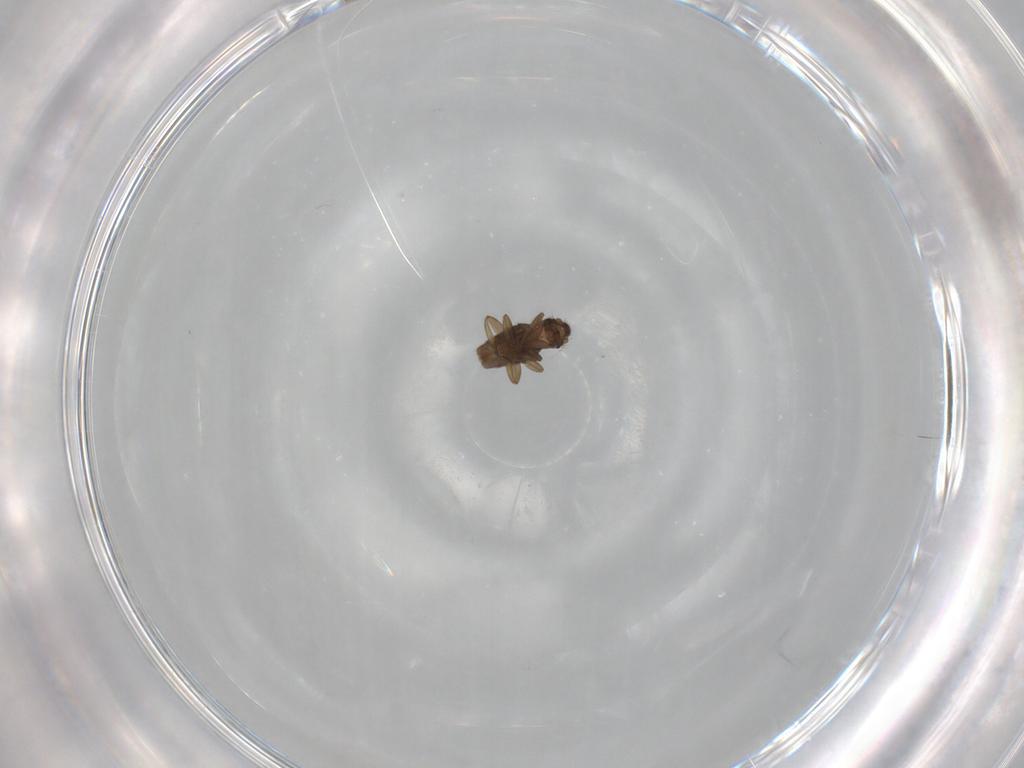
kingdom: Animalia
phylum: Arthropoda
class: Insecta
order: Diptera
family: Phoridae
